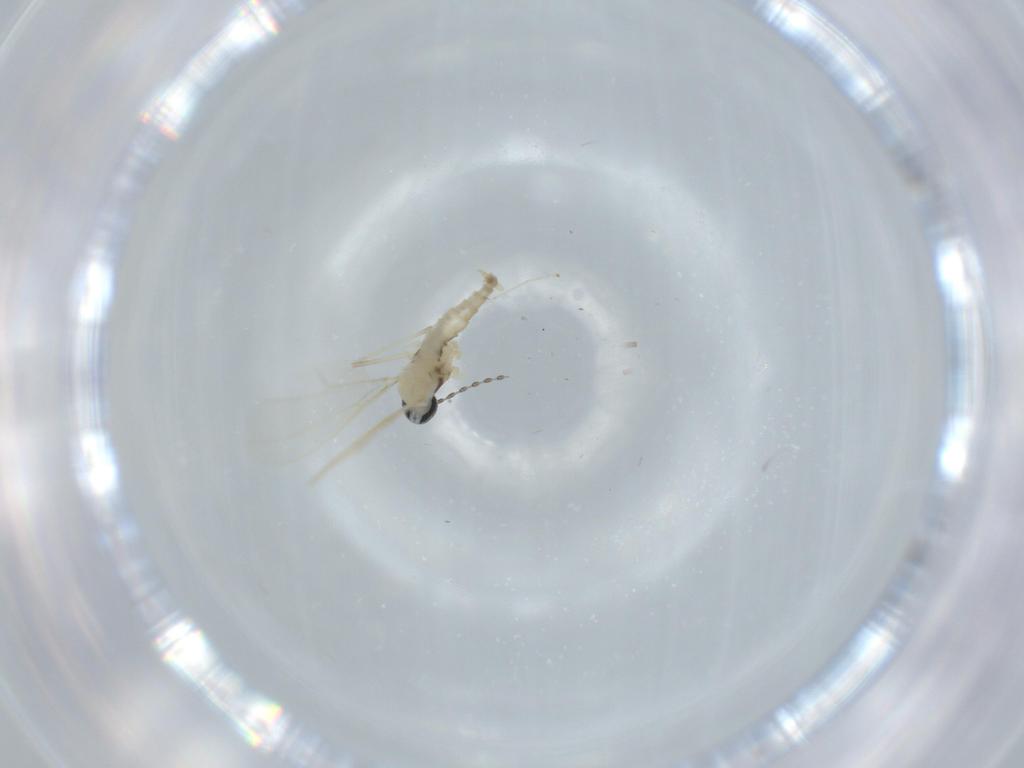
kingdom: Animalia
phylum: Arthropoda
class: Insecta
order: Diptera
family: Cecidomyiidae
